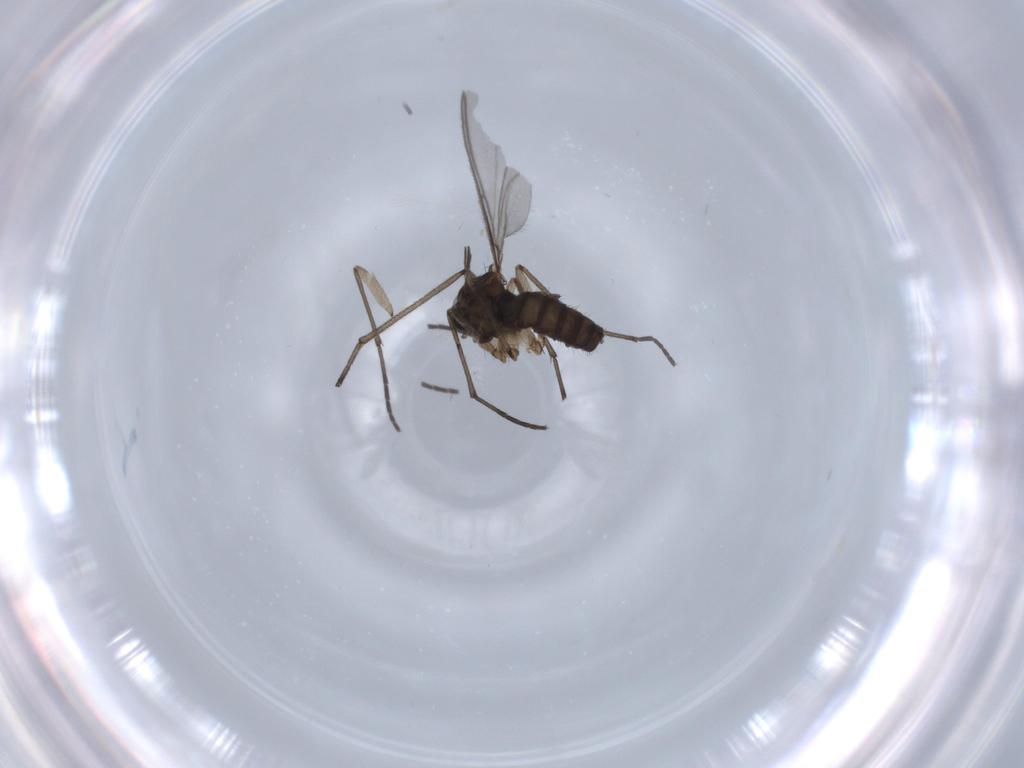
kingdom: Animalia
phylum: Arthropoda
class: Insecta
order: Diptera
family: Sciaridae
